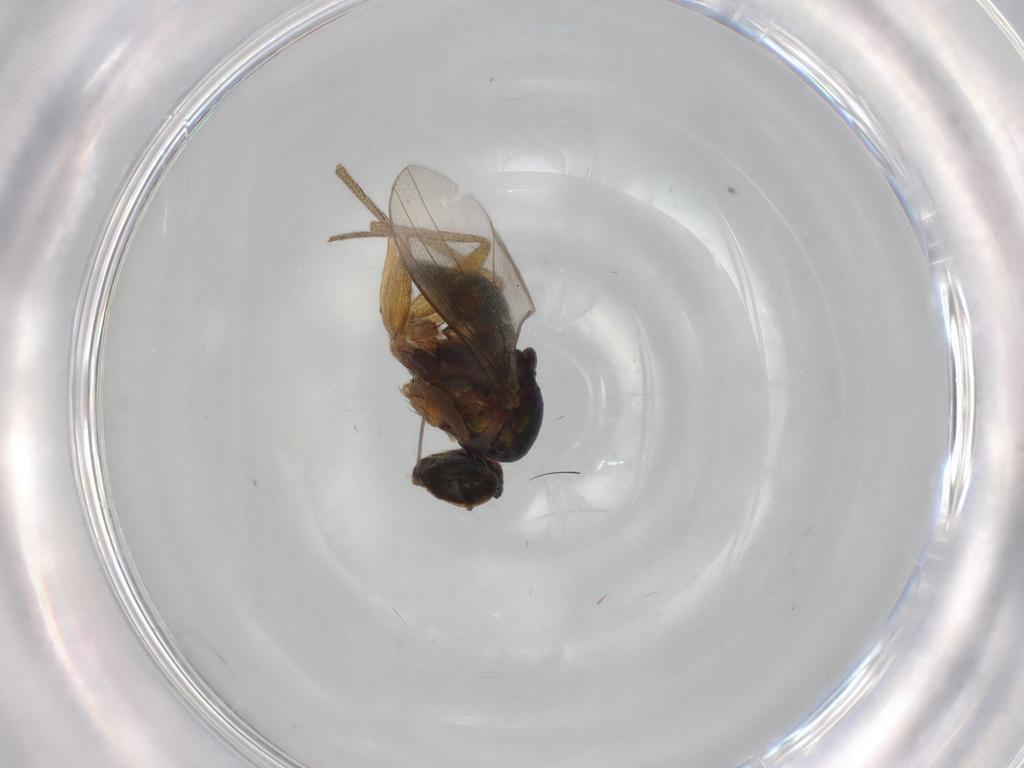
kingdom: Animalia
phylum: Arthropoda
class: Insecta
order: Diptera
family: Dolichopodidae
